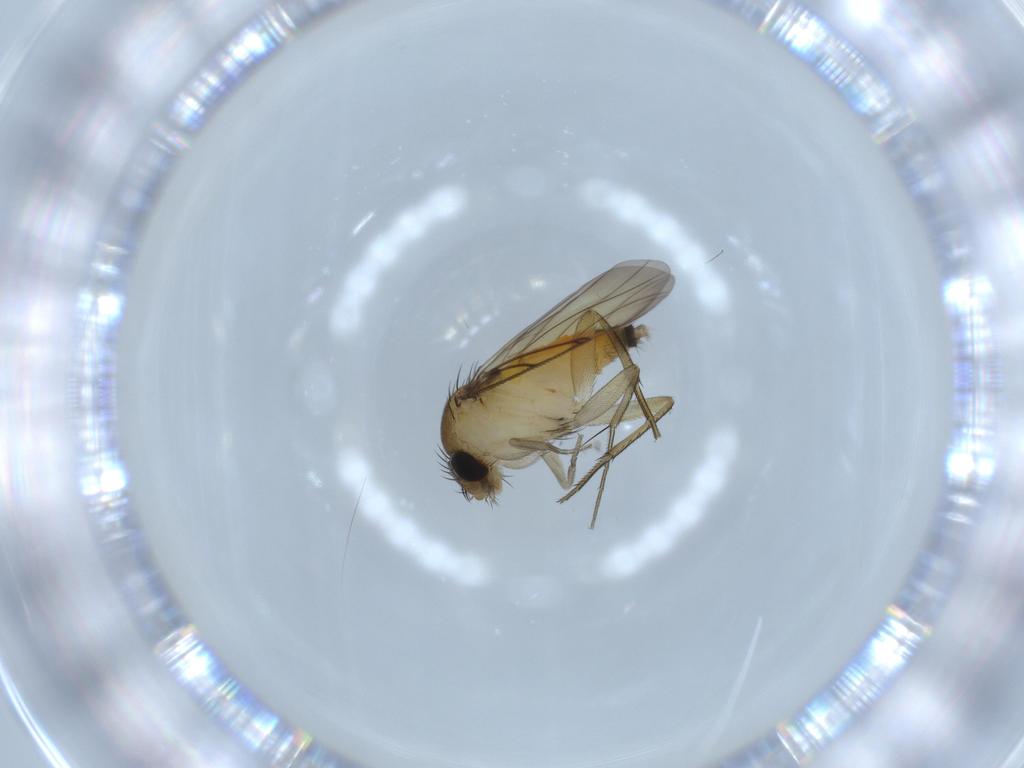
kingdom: Animalia
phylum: Arthropoda
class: Insecta
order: Diptera
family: Phoridae
